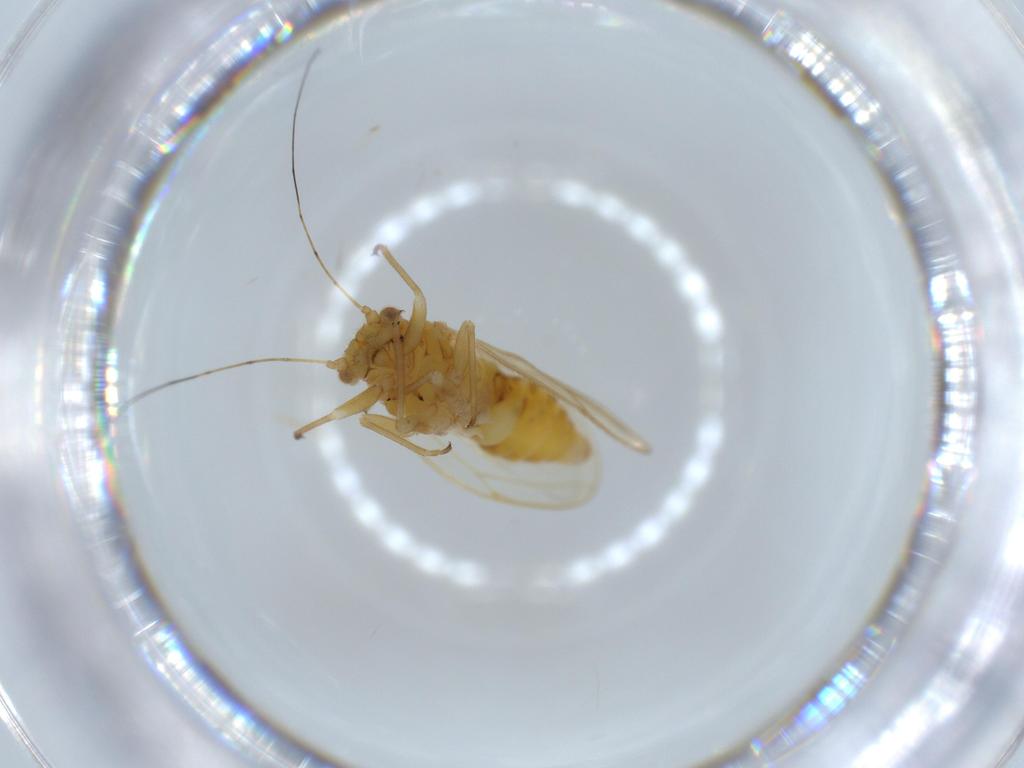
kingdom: Animalia
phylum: Arthropoda
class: Insecta
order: Hemiptera
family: Psyllidae
